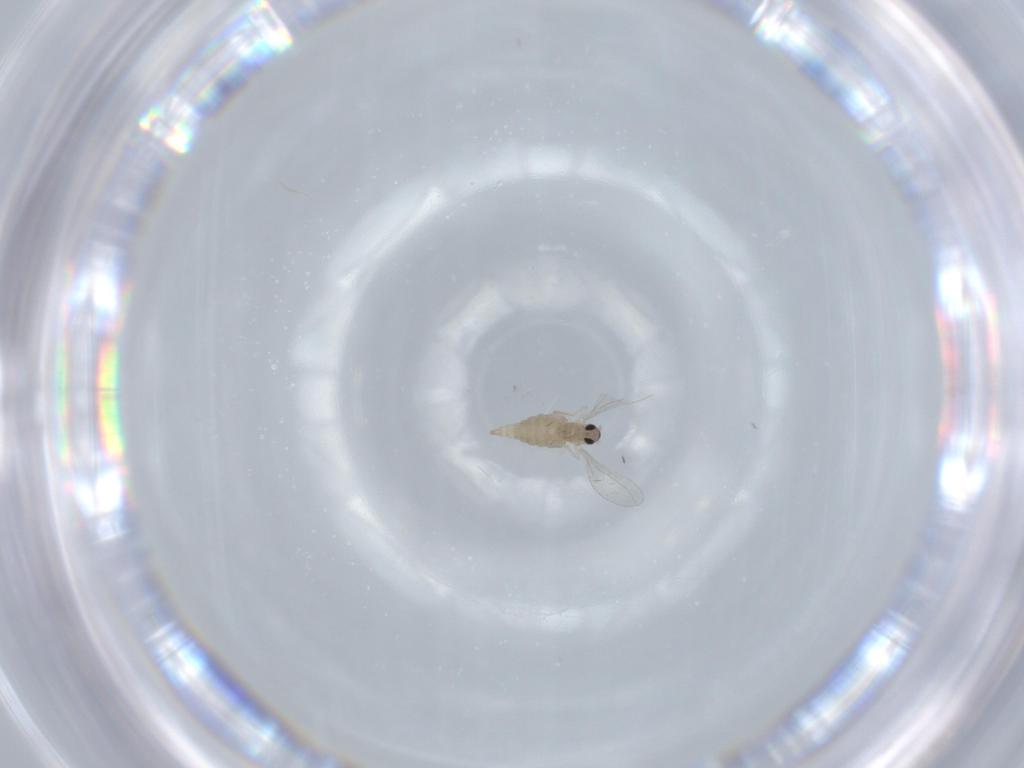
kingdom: Animalia
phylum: Arthropoda
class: Insecta
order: Diptera
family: Cecidomyiidae
